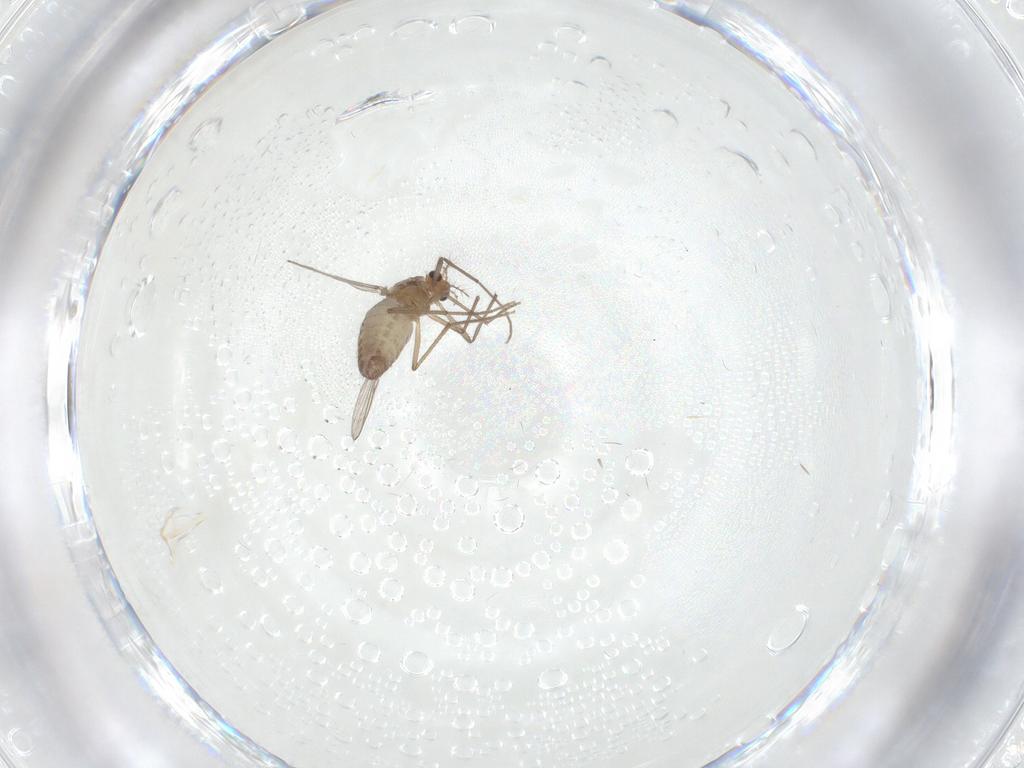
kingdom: Animalia
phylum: Arthropoda
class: Insecta
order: Diptera
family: Chironomidae
